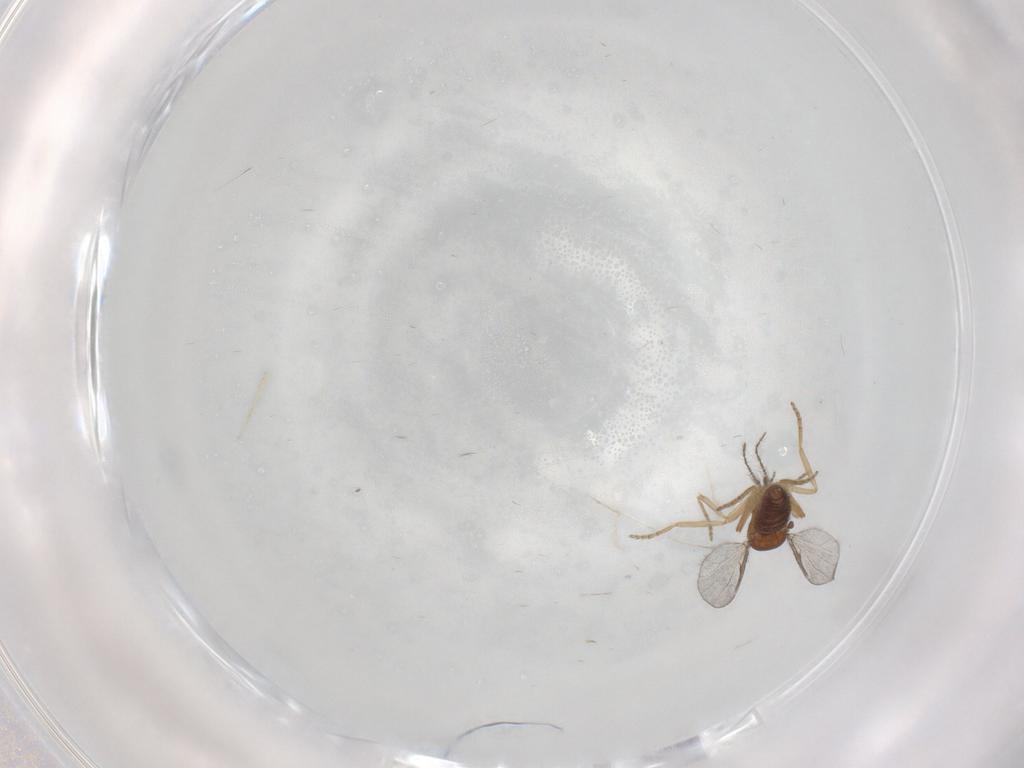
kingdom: Animalia
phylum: Arthropoda
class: Insecta
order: Diptera
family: Ceratopogonidae
